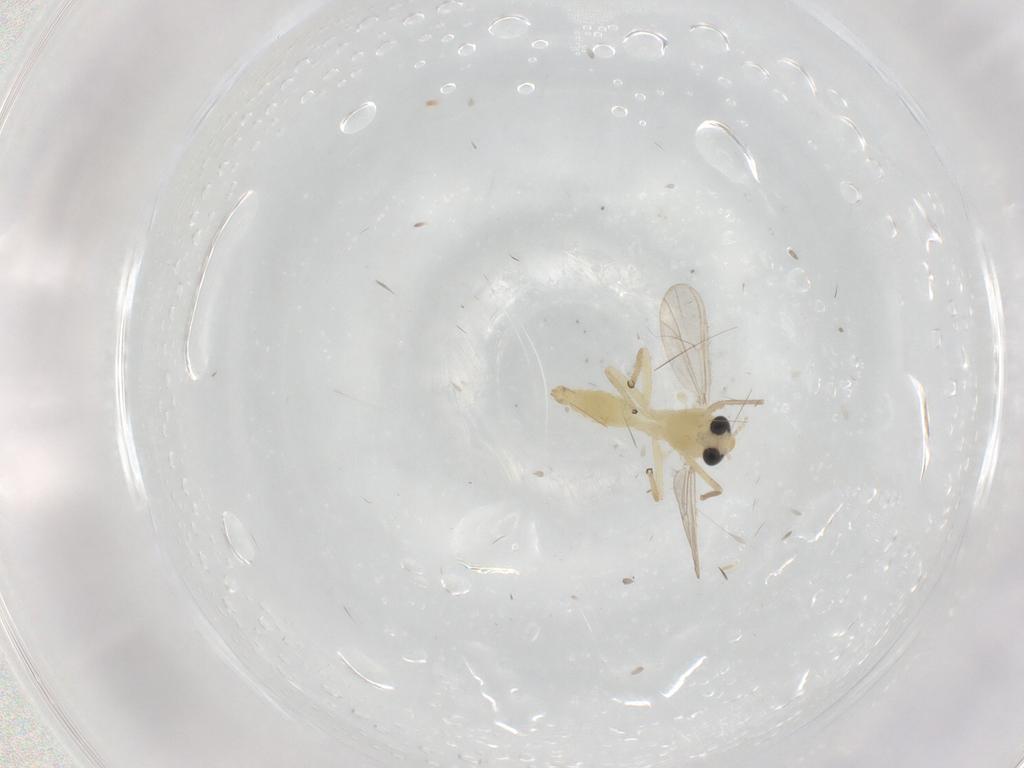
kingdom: Animalia
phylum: Arthropoda
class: Insecta
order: Diptera
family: Chironomidae
